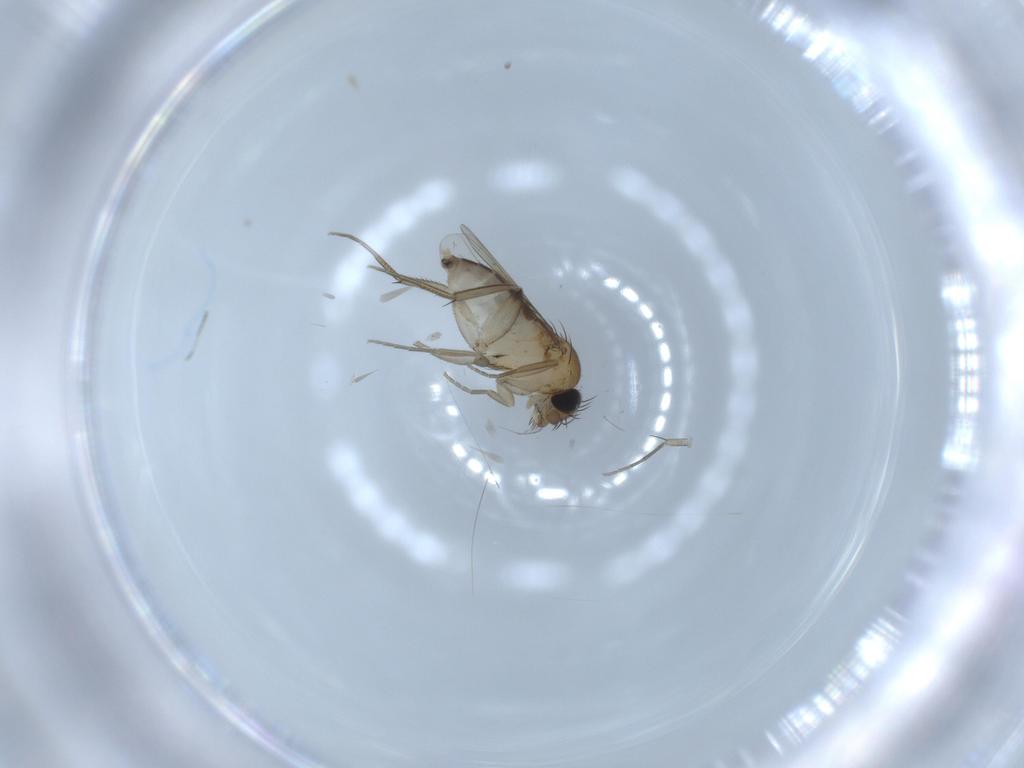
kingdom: Animalia
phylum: Arthropoda
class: Insecta
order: Diptera
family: Phoridae
